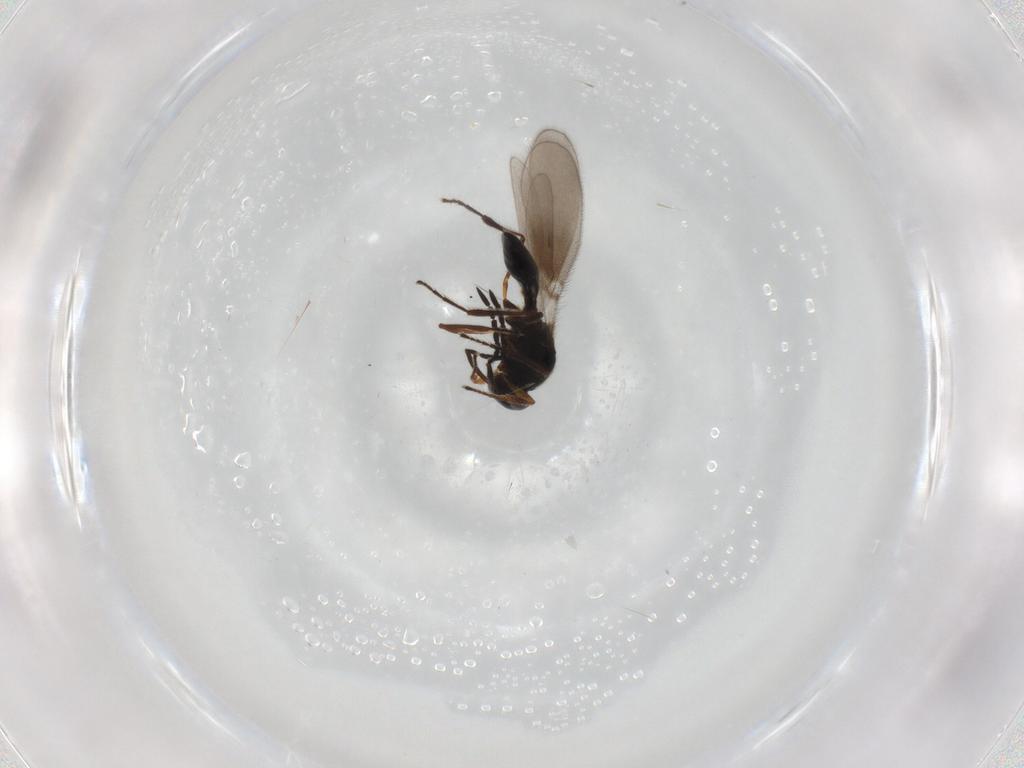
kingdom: Animalia
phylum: Arthropoda
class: Insecta
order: Hymenoptera
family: Platygastridae
